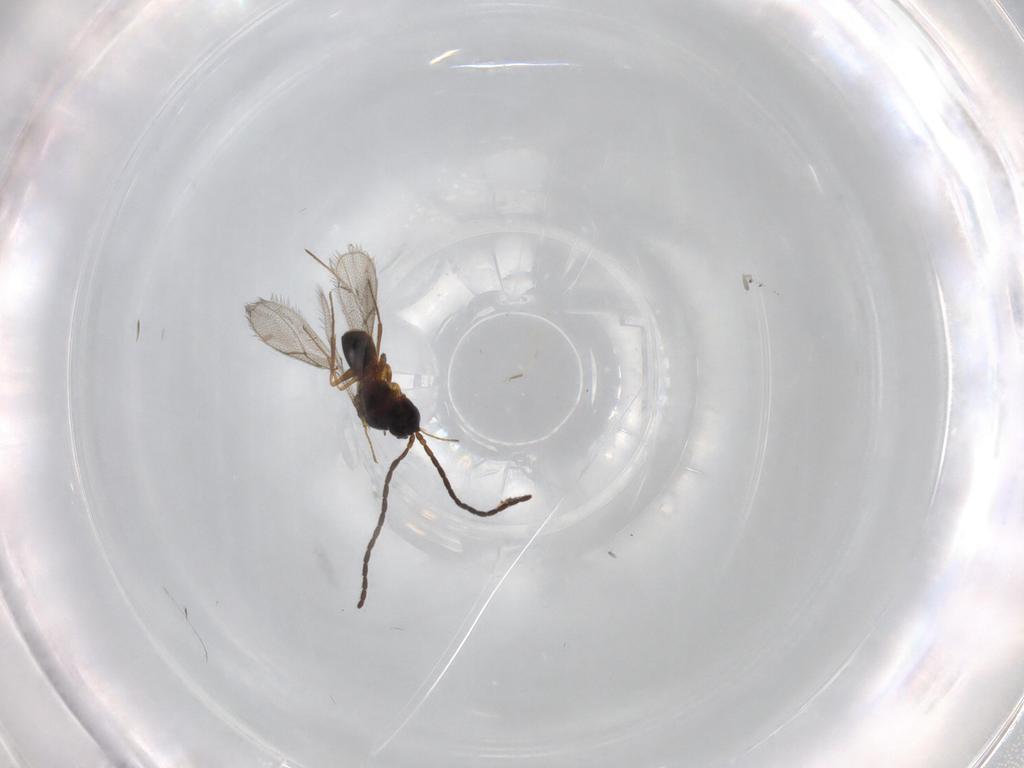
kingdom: Animalia
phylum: Arthropoda
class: Insecta
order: Hymenoptera
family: Figitidae
